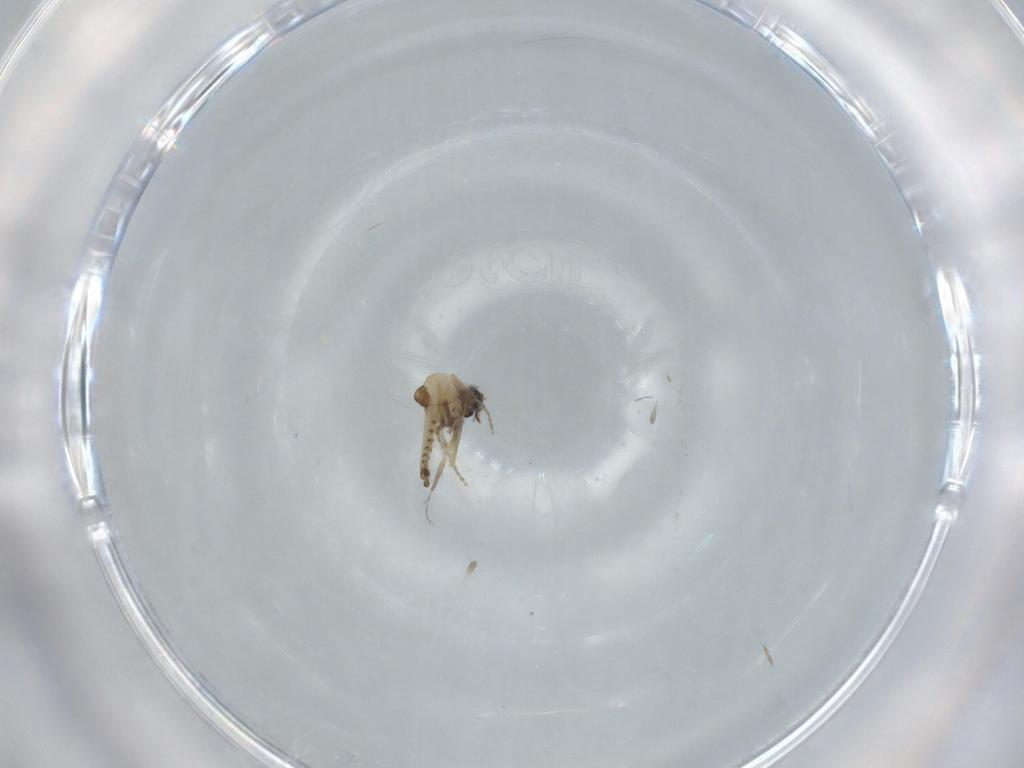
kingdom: Animalia
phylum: Arthropoda
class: Insecta
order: Diptera
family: Ceratopogonidae
